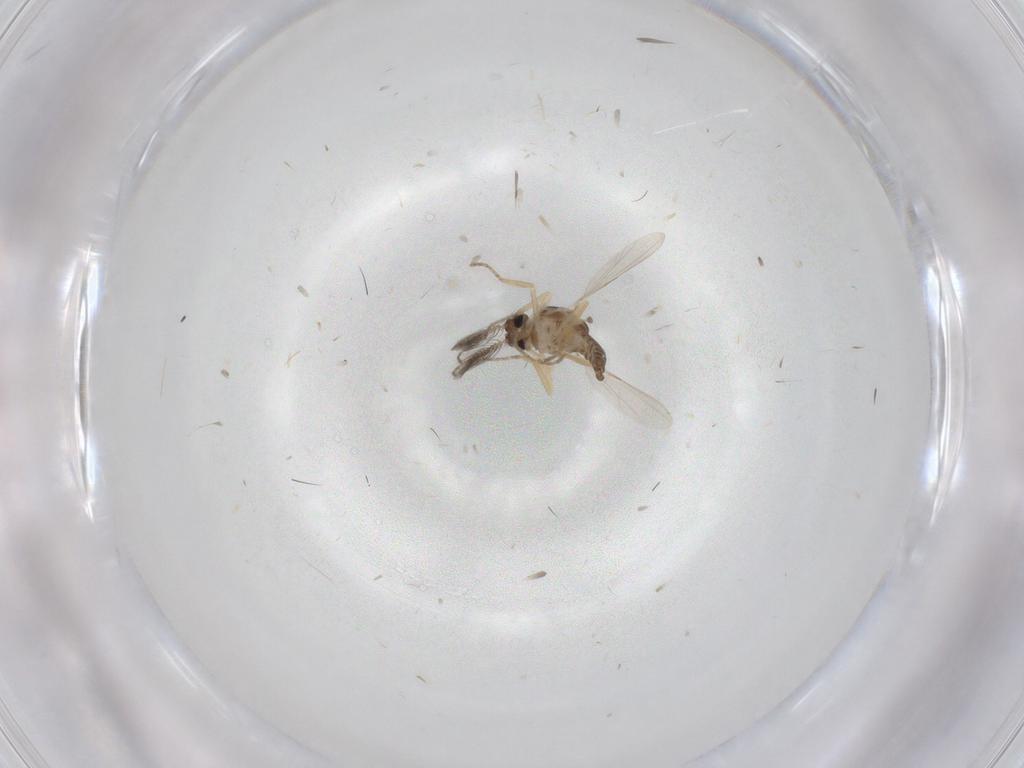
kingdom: Animalia
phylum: Arthropoda
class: Insecta
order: Diptera
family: Ceratopogonidae
